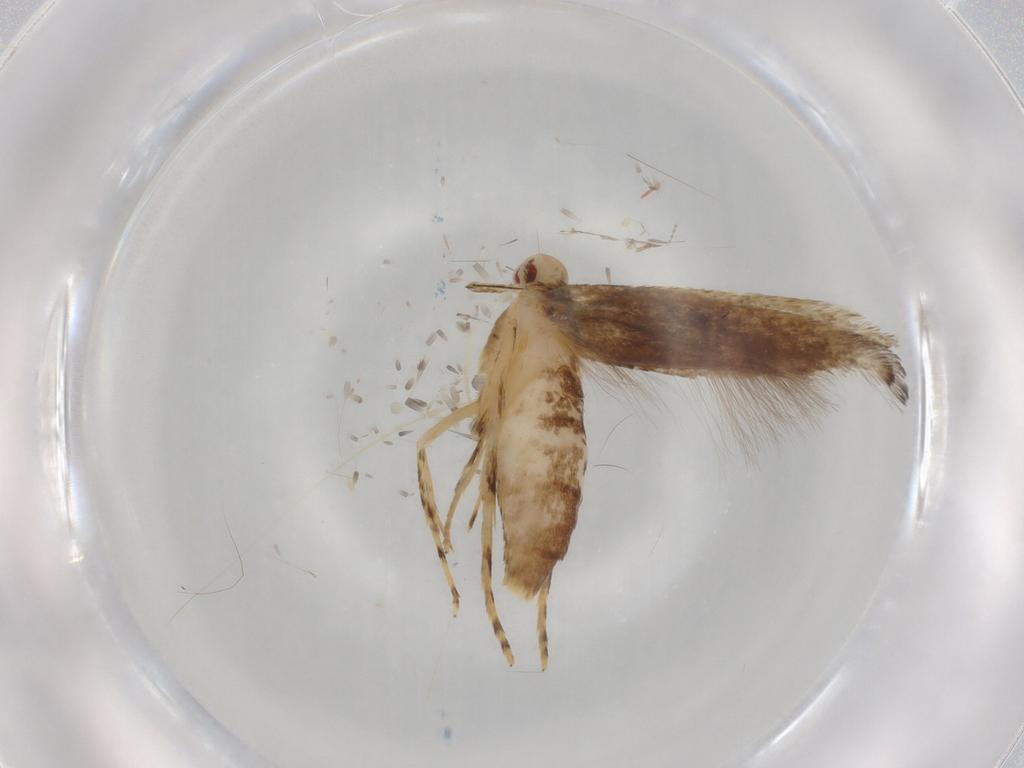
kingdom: Animalia
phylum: Arthropoda
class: Insecta
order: Lepidoptera
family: Cosmopterigidae
